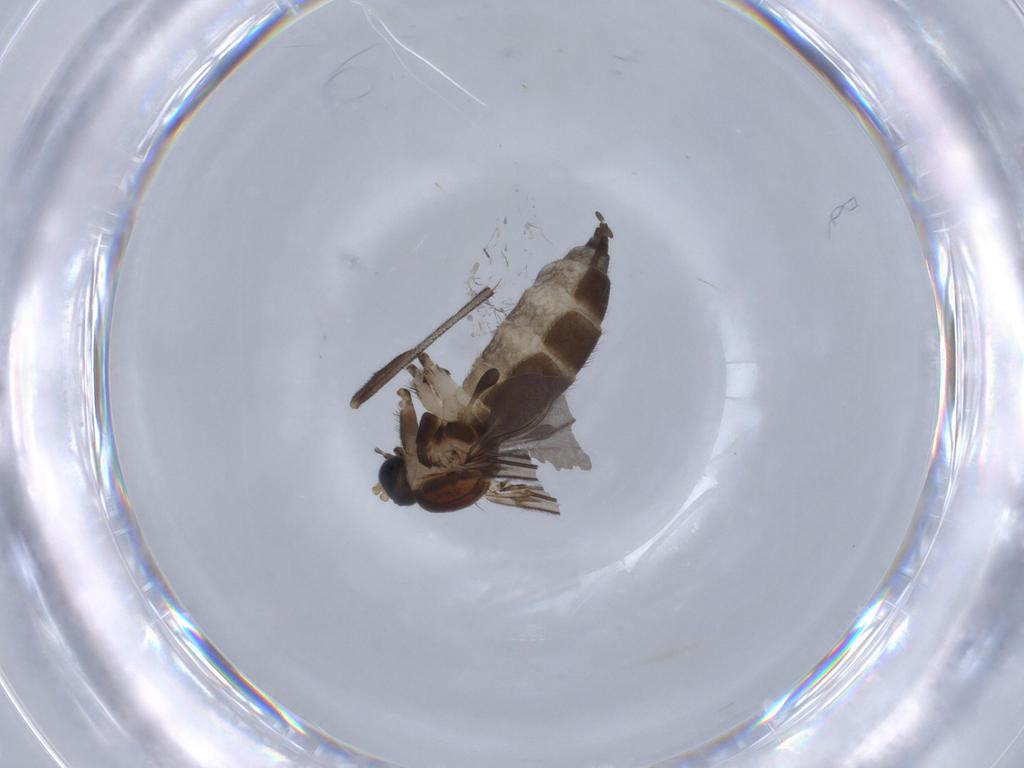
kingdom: Animalia
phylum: Arthropoda
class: Insecta
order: Diptera
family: Sciaridae
